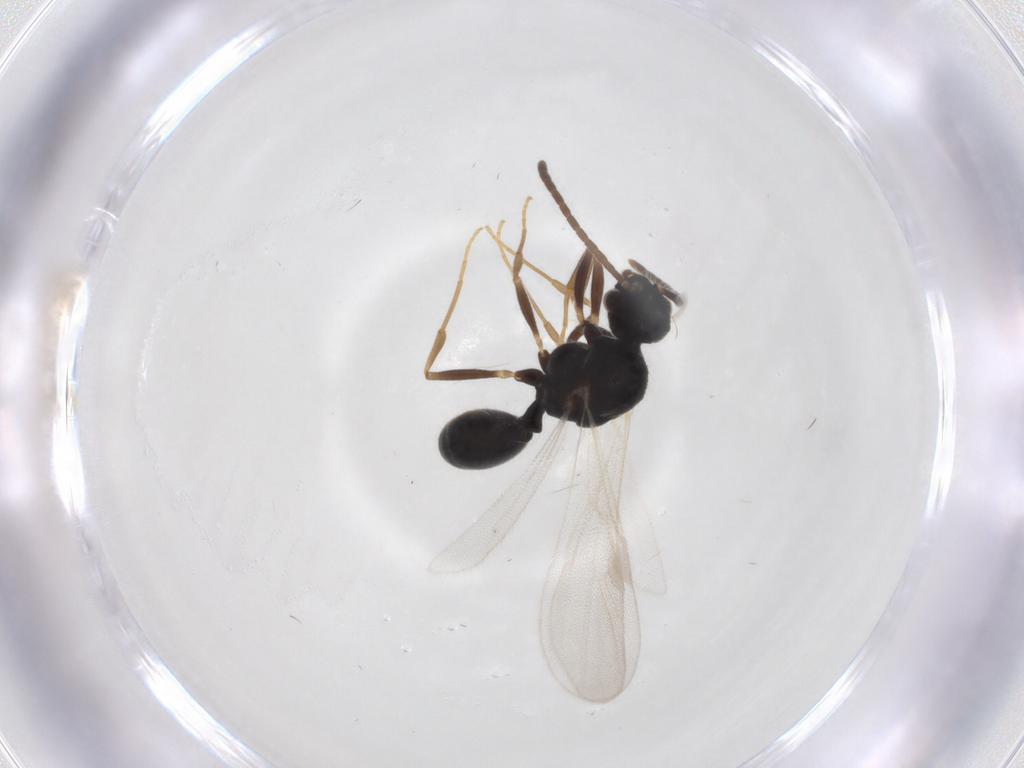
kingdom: Animalia
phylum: Arthropoda
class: Insecta
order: Hymenoptera
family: Formicidae
